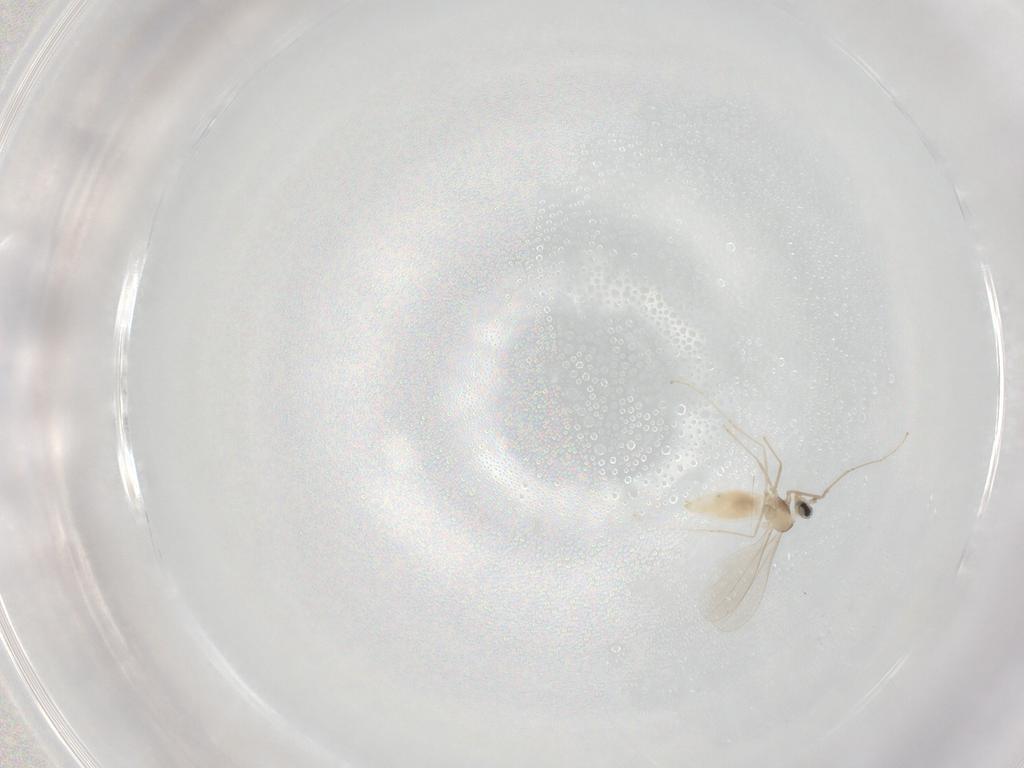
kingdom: Animalia
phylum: Arthropoda
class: Insecta
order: Diptera
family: Cecidomyiidae
